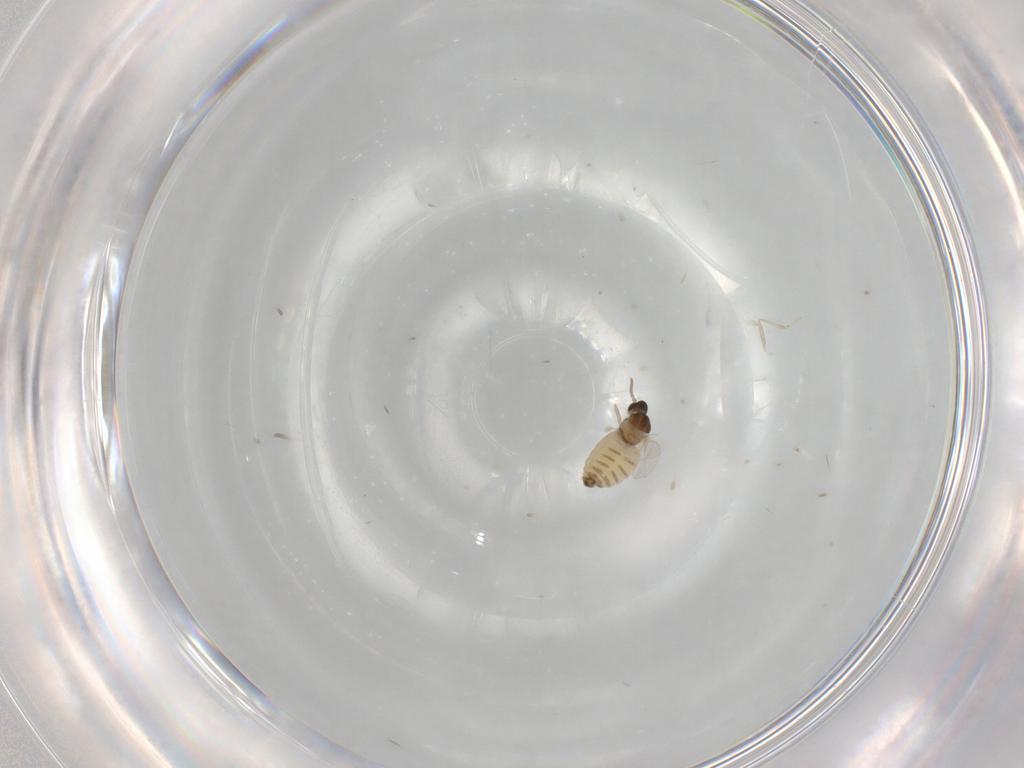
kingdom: Animalia
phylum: Arthropoda
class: Insecta
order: Diptera
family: Cecidomyiidae
